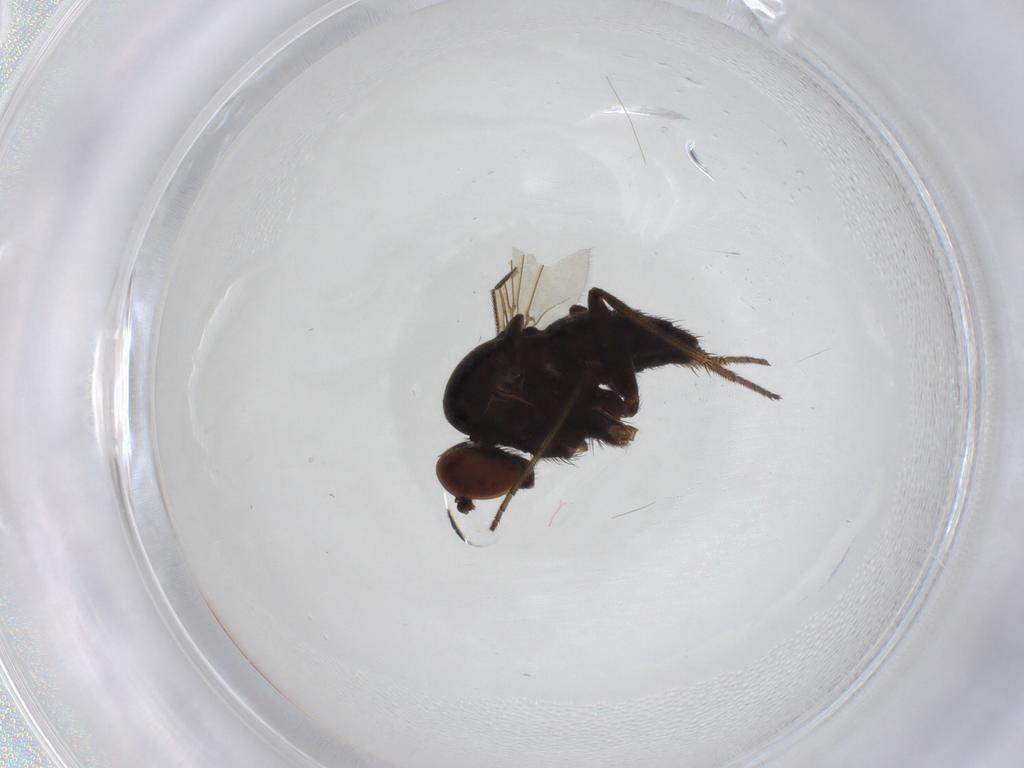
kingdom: Animalia
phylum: Arthropoda
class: Insecta
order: Diptera
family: Dolichopodidae
